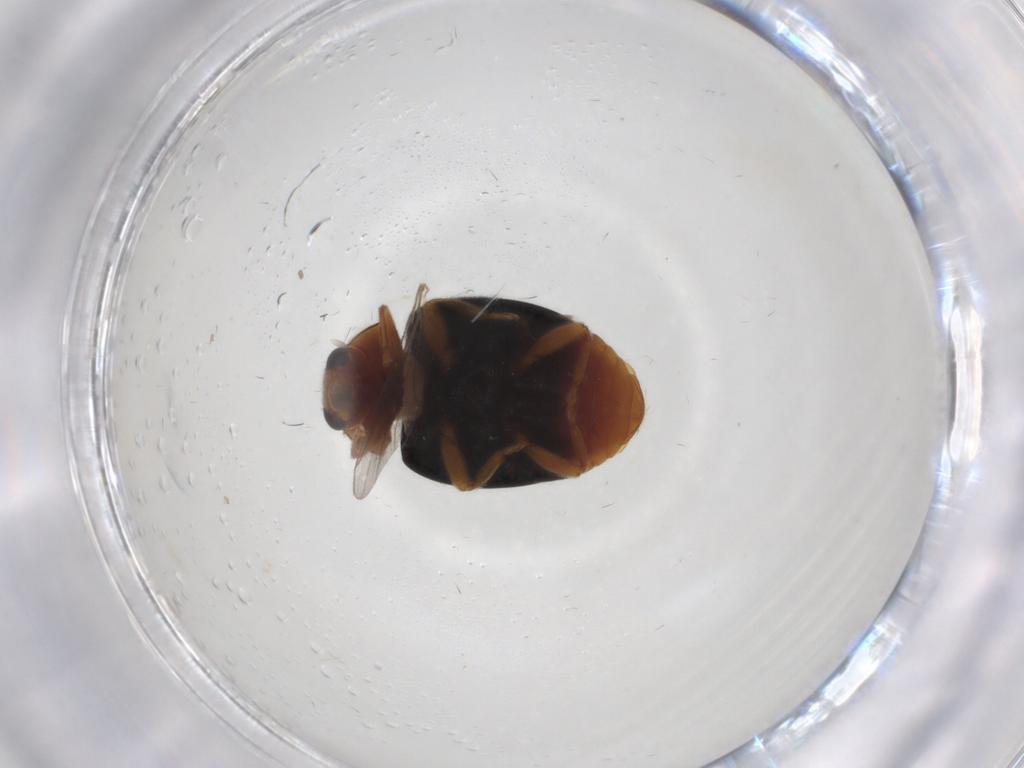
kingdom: Animalia
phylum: Arthropoda
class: Insecta
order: Coleoptera
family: Coccinellidae
